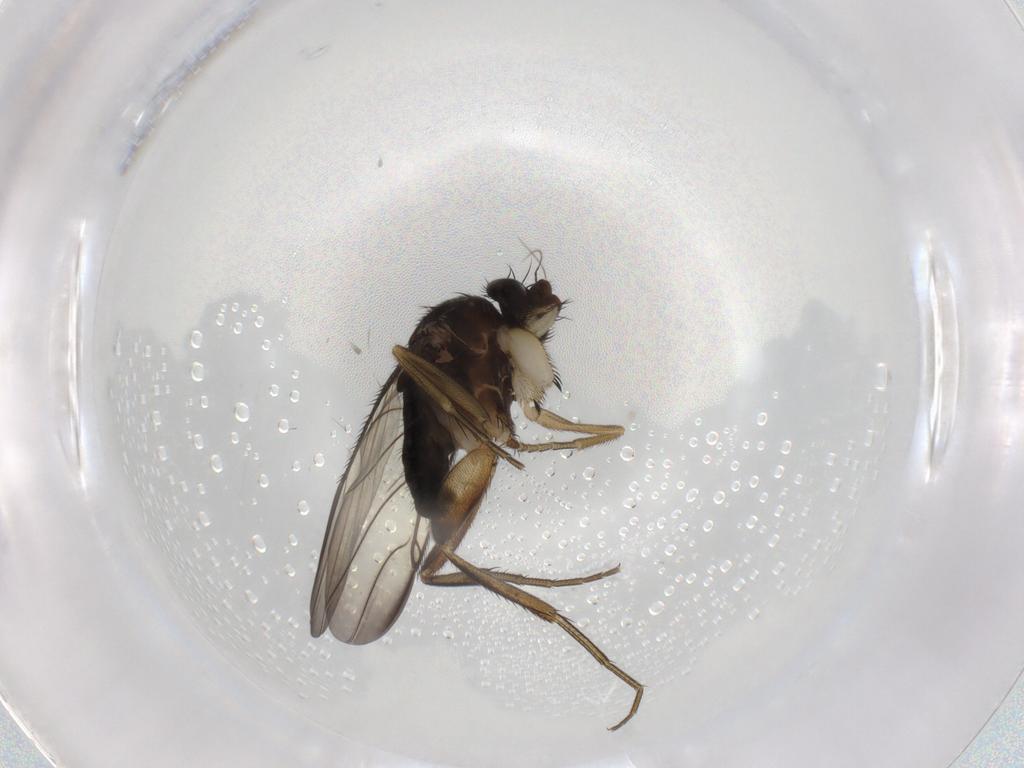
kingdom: Animalia
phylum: Arthropoda
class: Insecta
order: Diptera
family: Phoridae
